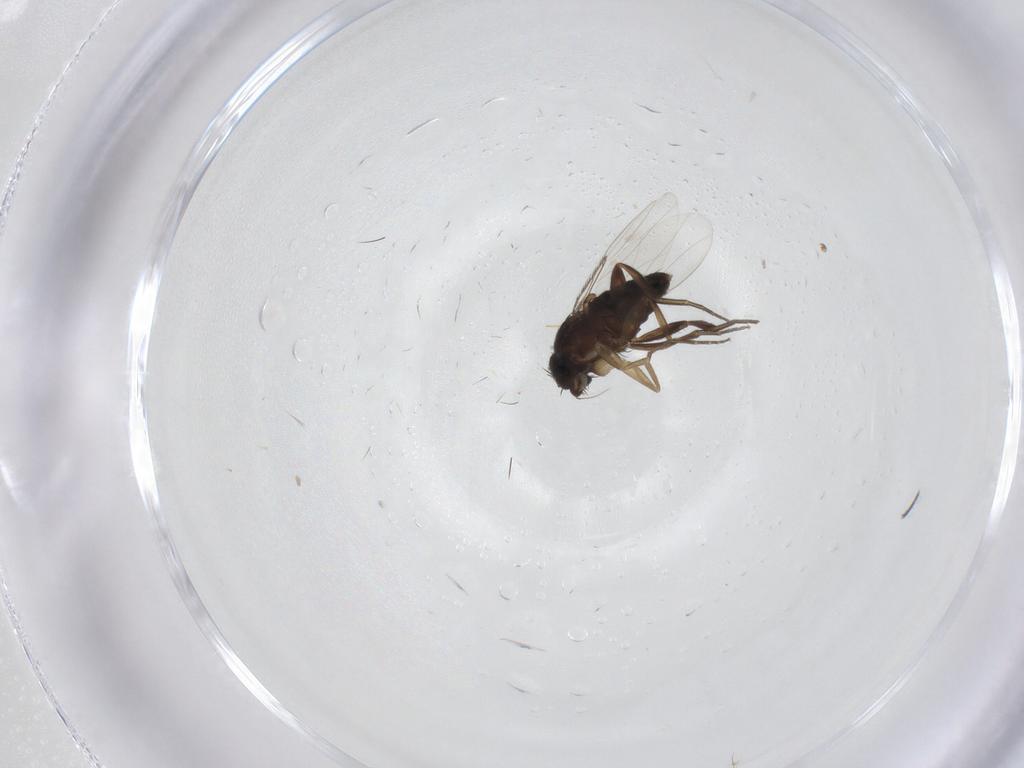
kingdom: Animalia
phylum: Arthropoda
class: Insecta
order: Diptera
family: Phoridae
